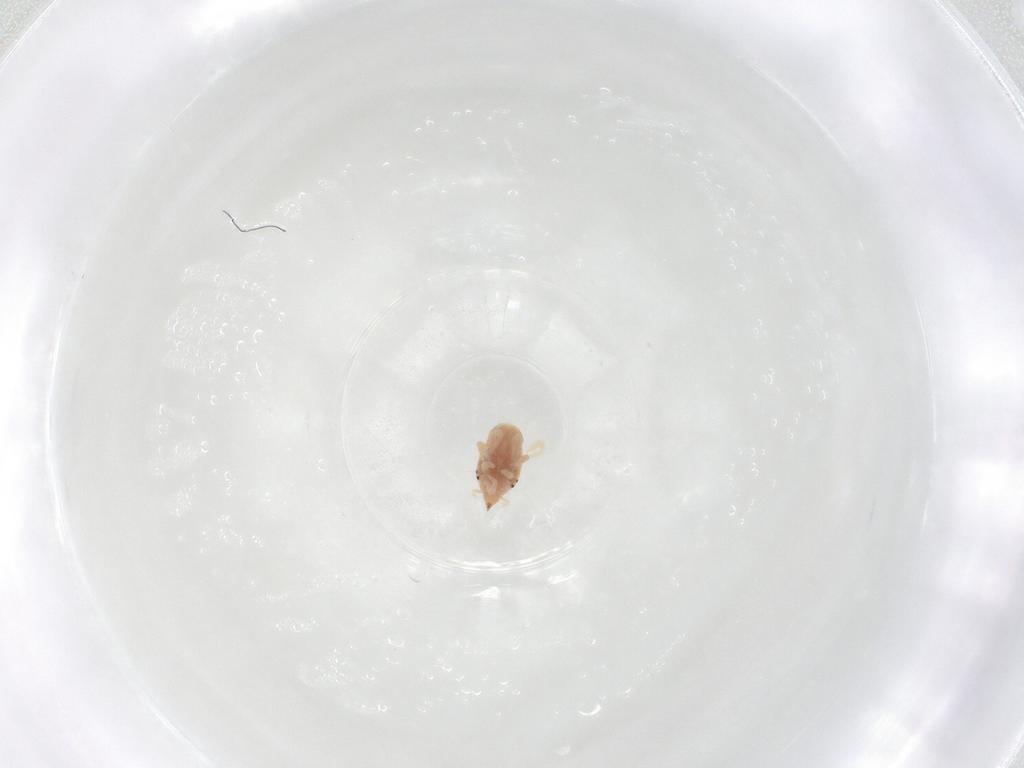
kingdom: Animalia
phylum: Arthropoda
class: Arachnida
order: Trombidiformes
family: Bdellidae
